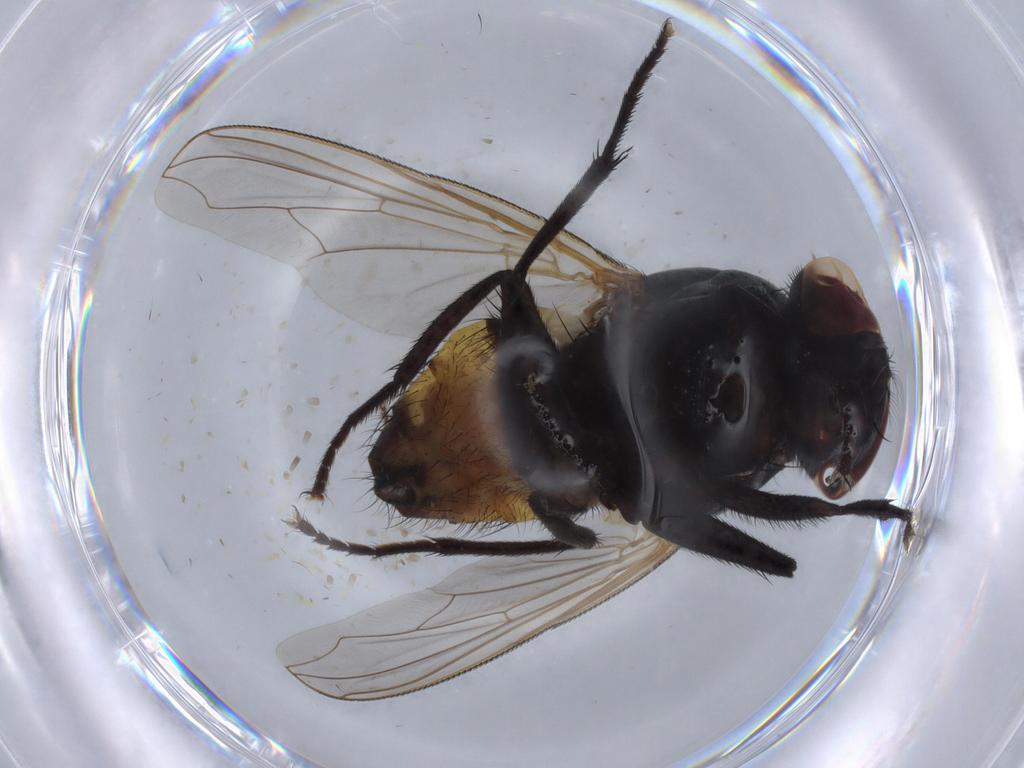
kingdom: Animalia
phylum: Arthropoda
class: Insecta
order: Diptera
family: Muscidae
